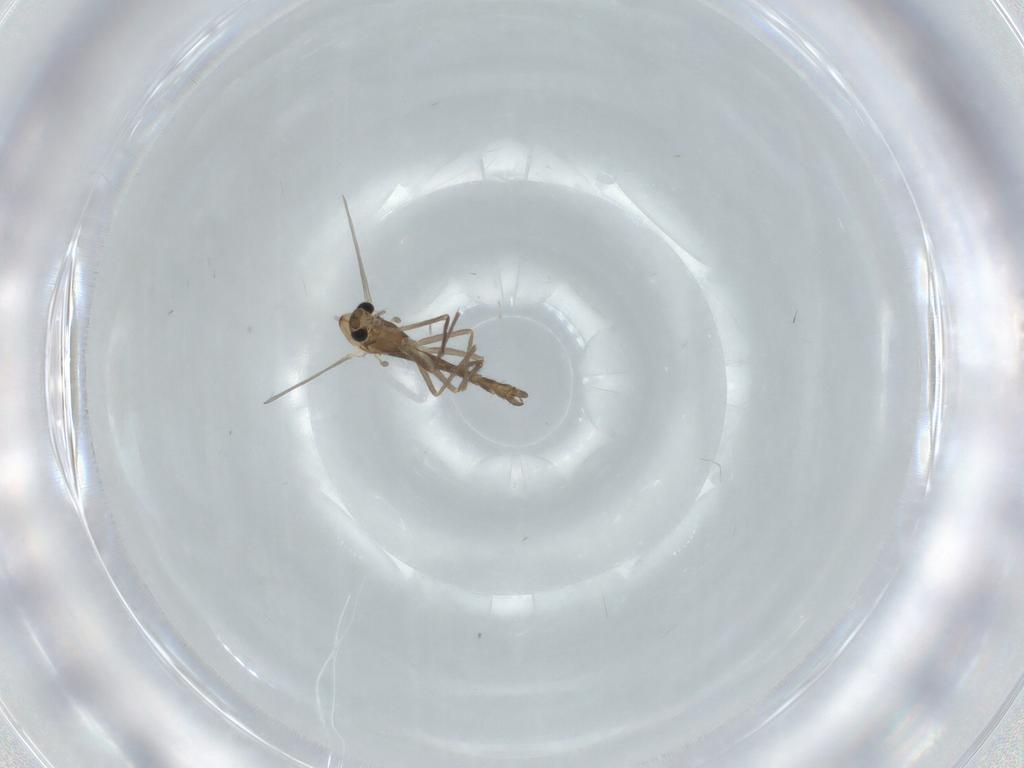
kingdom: Animalia
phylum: Arthropoda
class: Insecta
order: Diptera
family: Chironomidae
